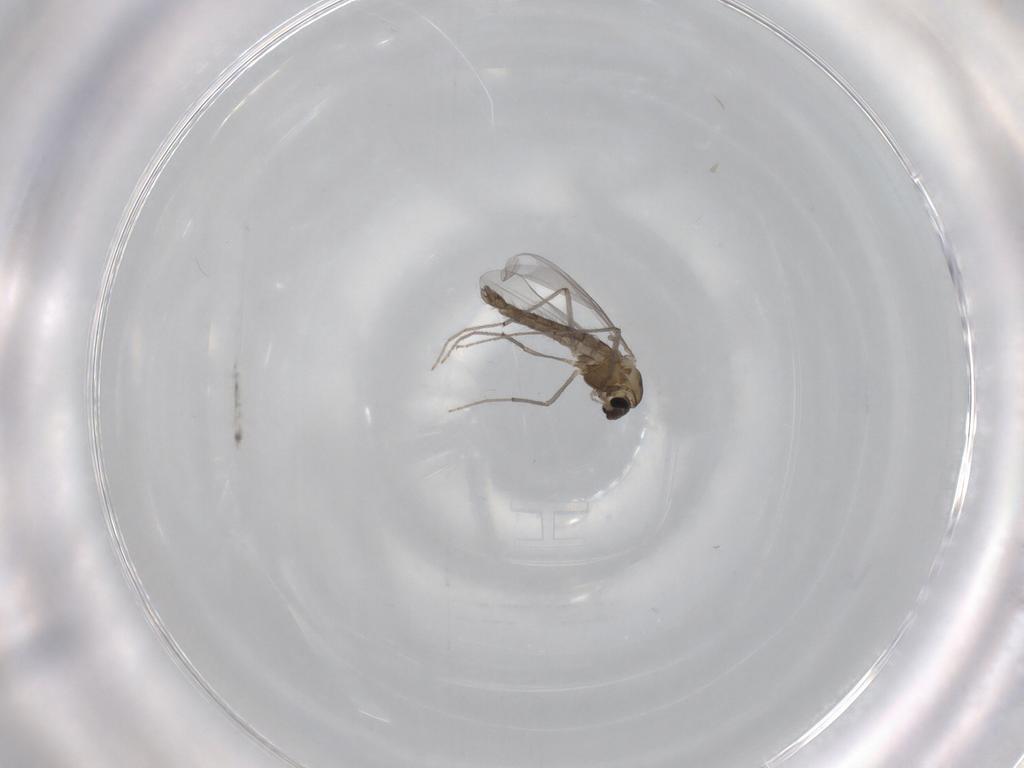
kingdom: Animalia
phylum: Arthropoda
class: Insecta
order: Diptera
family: Chironomidae
